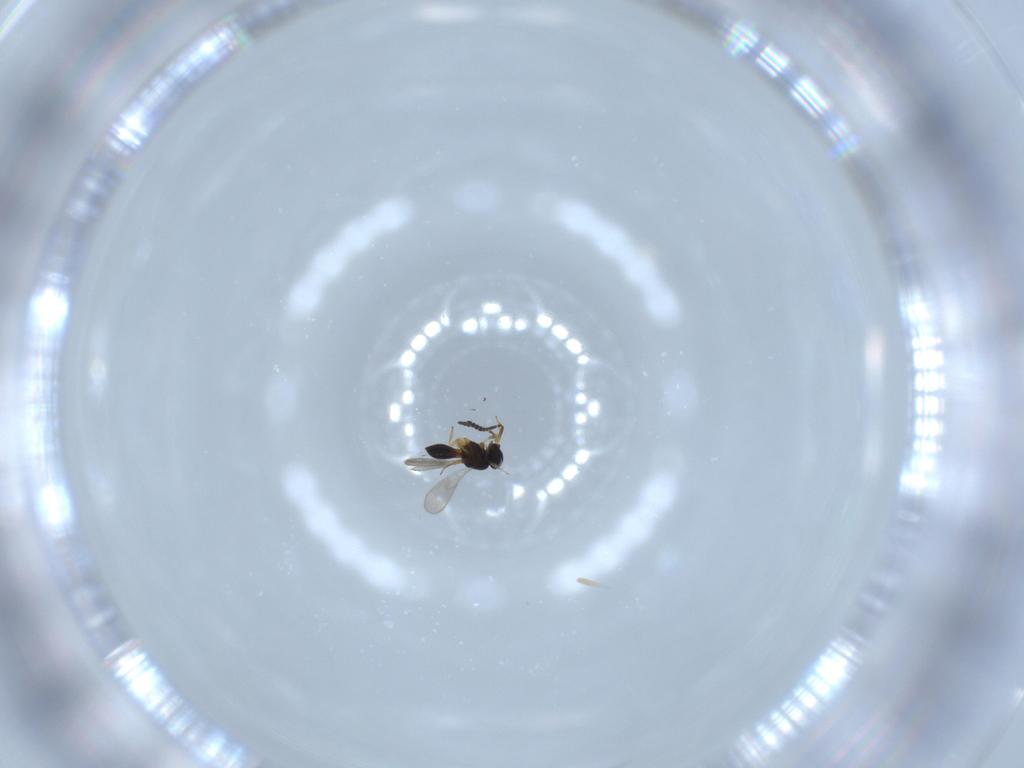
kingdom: Animalia
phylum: Arthropoda
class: Insecta
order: Hymenoptera
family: Scelionidae
